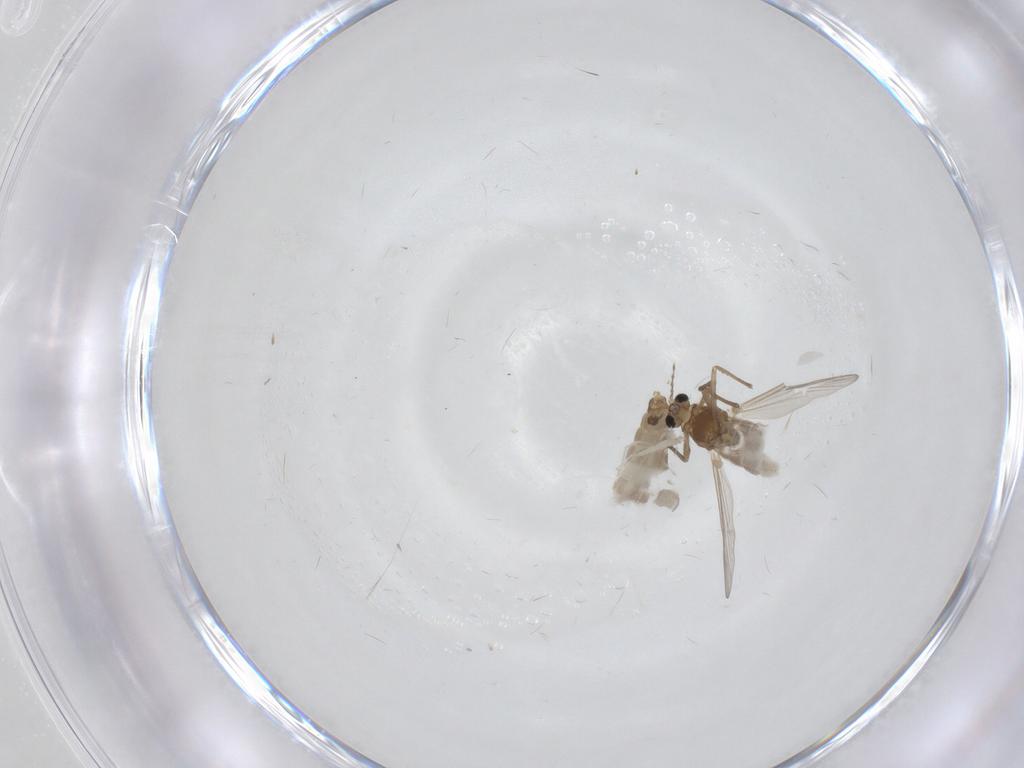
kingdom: Animalia
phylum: Arthropoda
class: Insecta
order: Diptera
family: Chironomidae
